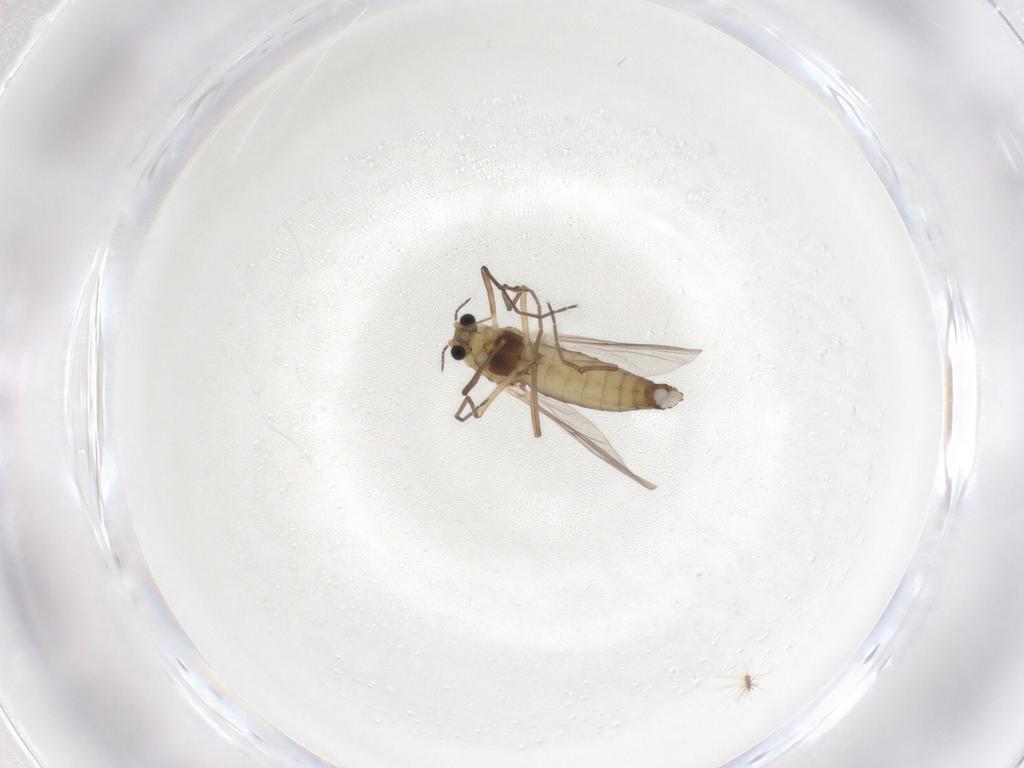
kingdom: Animalia
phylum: Arthropoda
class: Insecta
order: Diptera
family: Chironomidae
